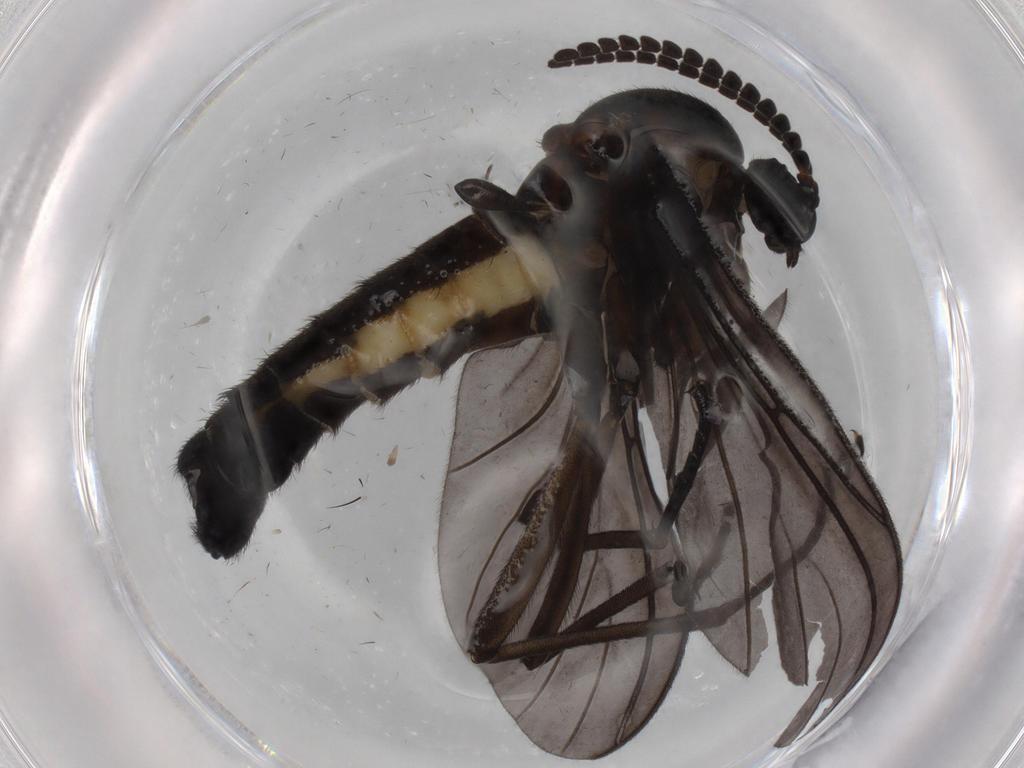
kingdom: Animalia
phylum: Arthropoda
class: Insecta
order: Diptera
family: Sciaridae
